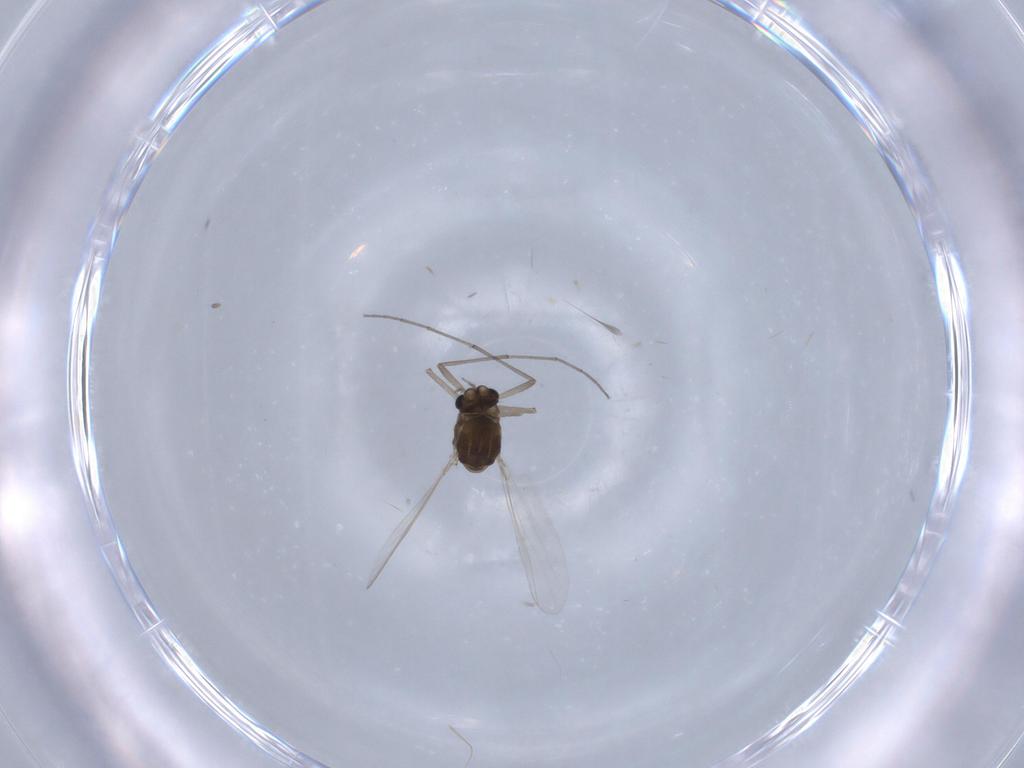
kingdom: Animalia
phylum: Arthropoda
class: Insecta
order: Diptera
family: Chironomidae
